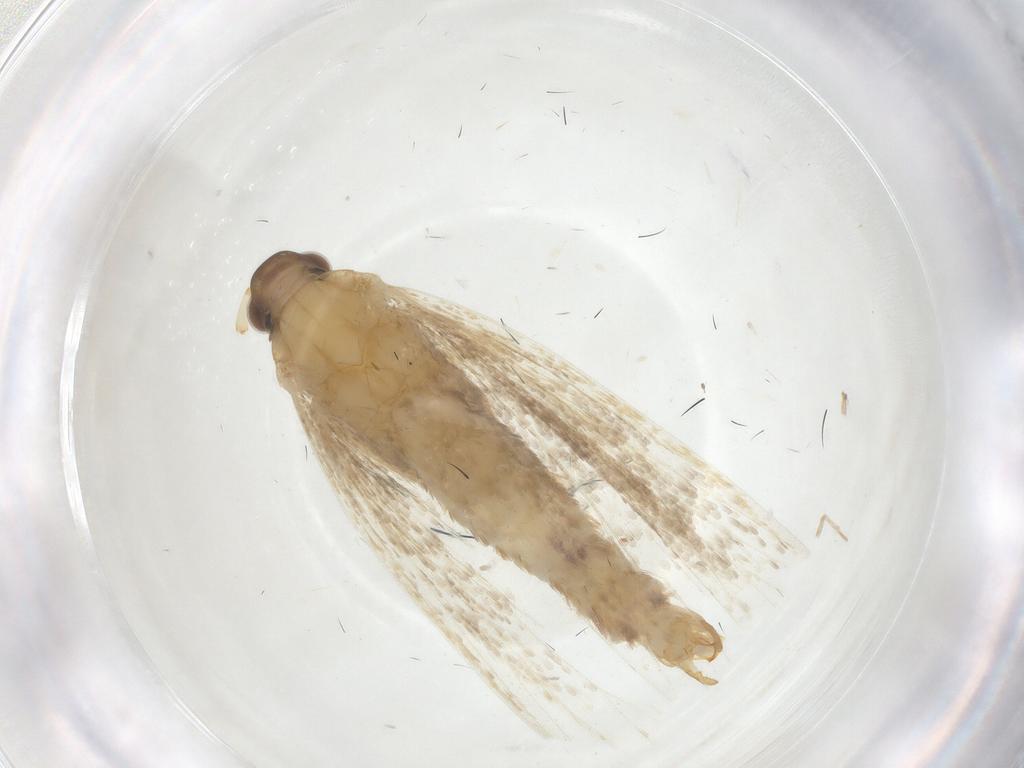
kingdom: Animalia
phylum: Arthropoda
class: Insecta
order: Lepidoptera
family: Lecithoceridae
